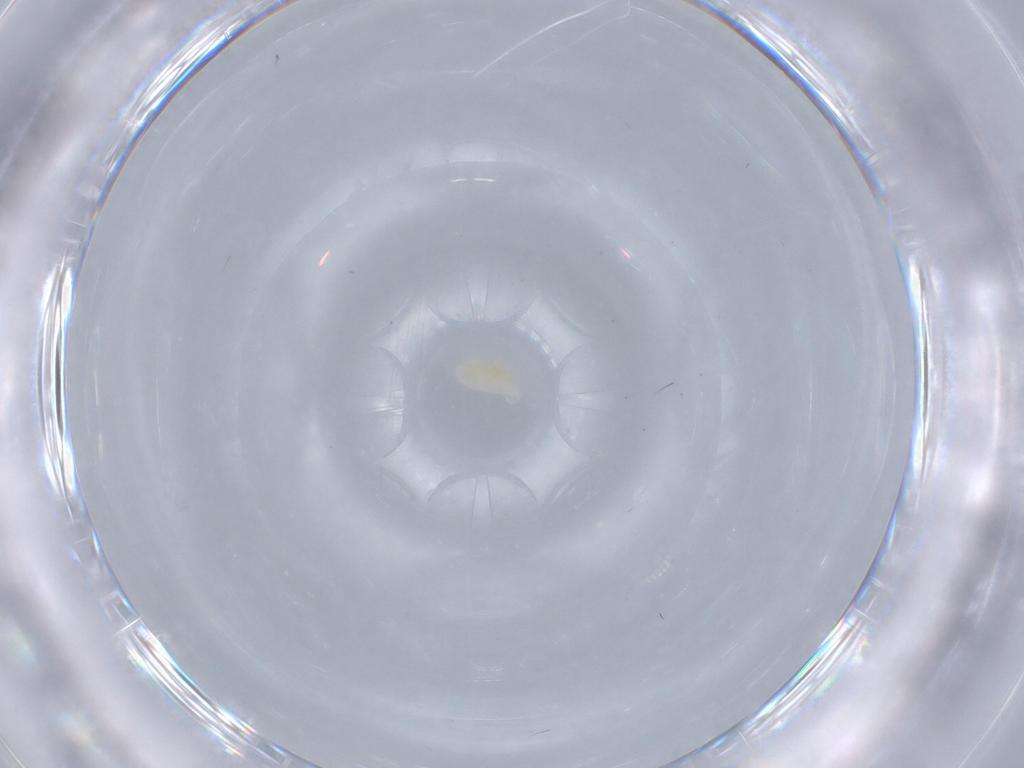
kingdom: Animalia
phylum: Arthropoda
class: Arachnida
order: Trombidiformes
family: Eupodidae
